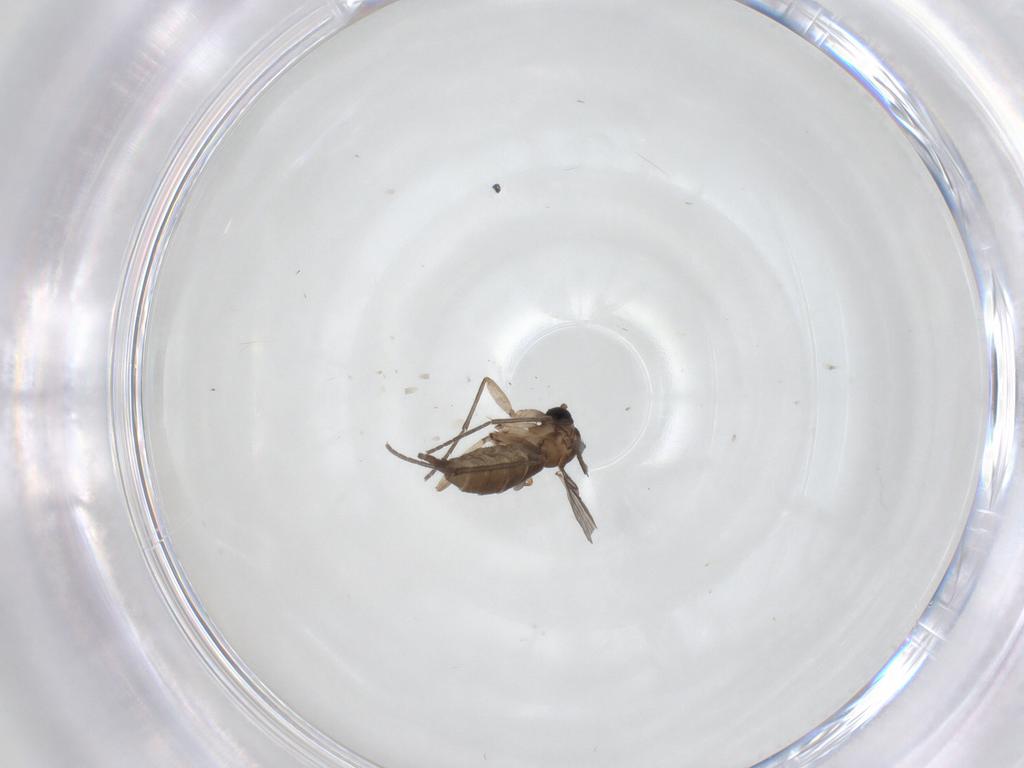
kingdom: Animalia
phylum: Arthropoda
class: Insecta
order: Diptera
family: Sciaridae
